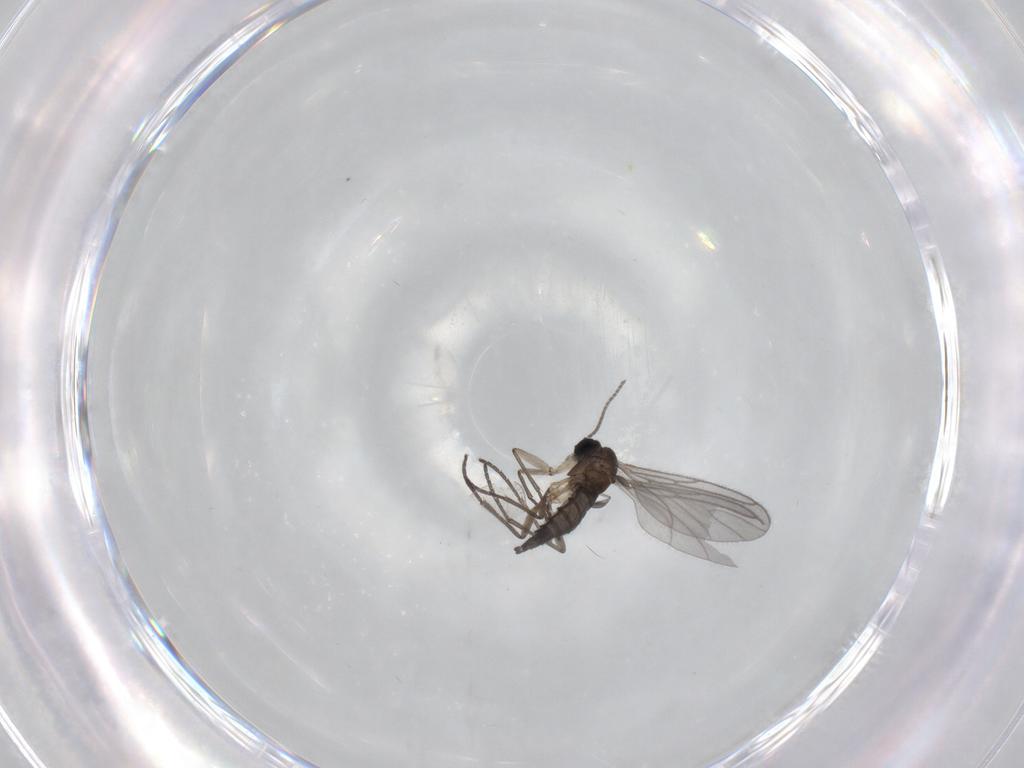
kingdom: Animalia
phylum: Arthropoda
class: Insecta
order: Diptera
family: Sciaridae
